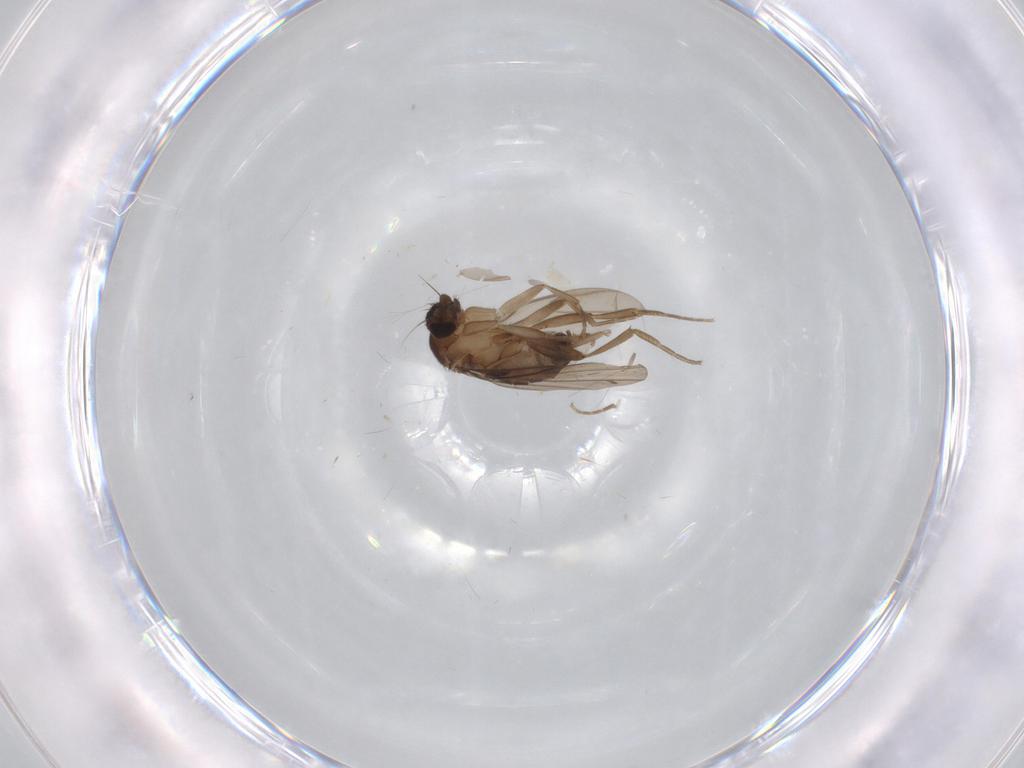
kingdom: Animalia
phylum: Arthropoda
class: Insecta
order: Diptera
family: Phoridae
